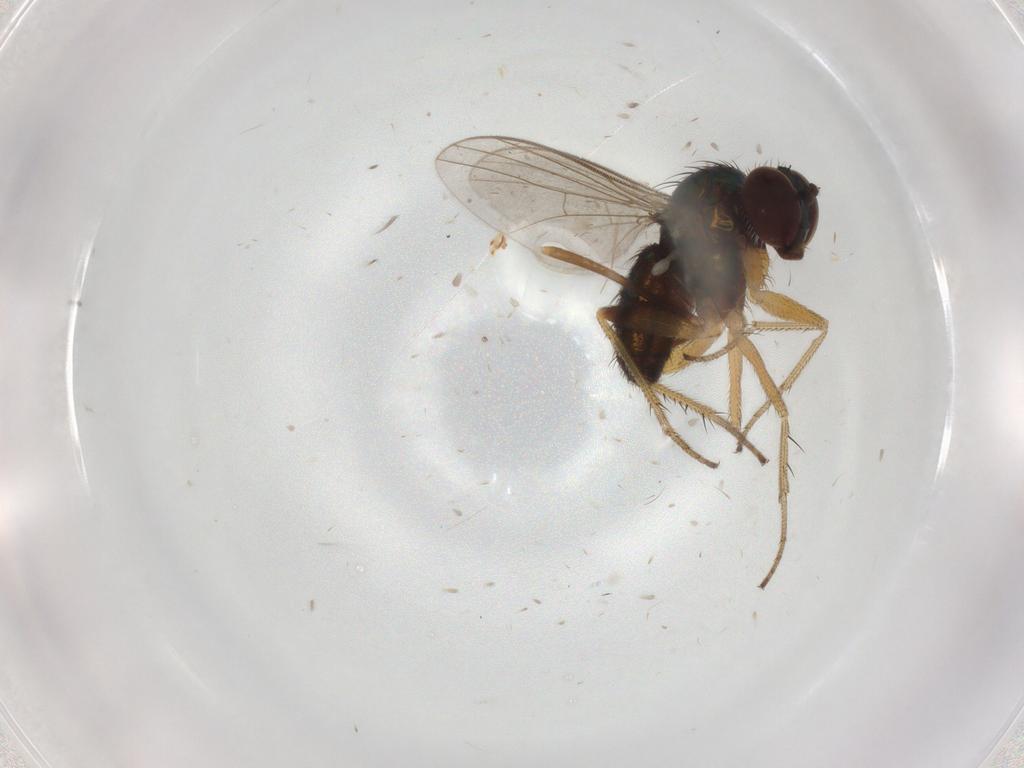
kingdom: Animalia
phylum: Arthropoda
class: Insecta
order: Diptera
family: Dolichopodidae
